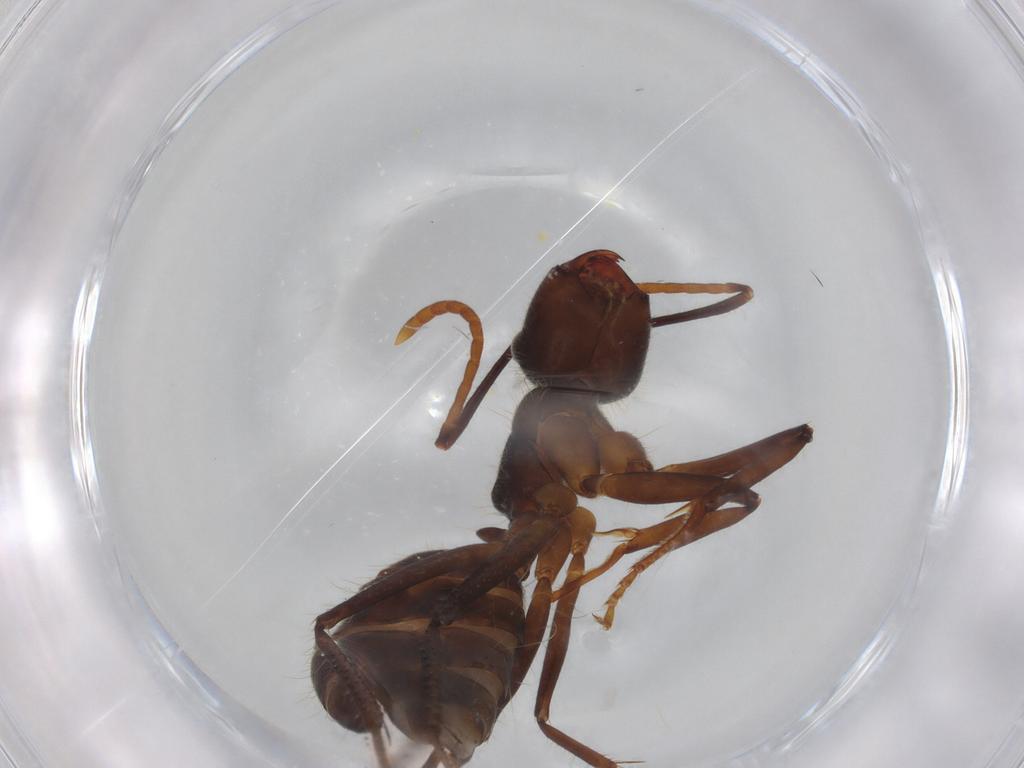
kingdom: Animalia
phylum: Arthropoda
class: Insecta
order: Hymenoptera
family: Formicidae
